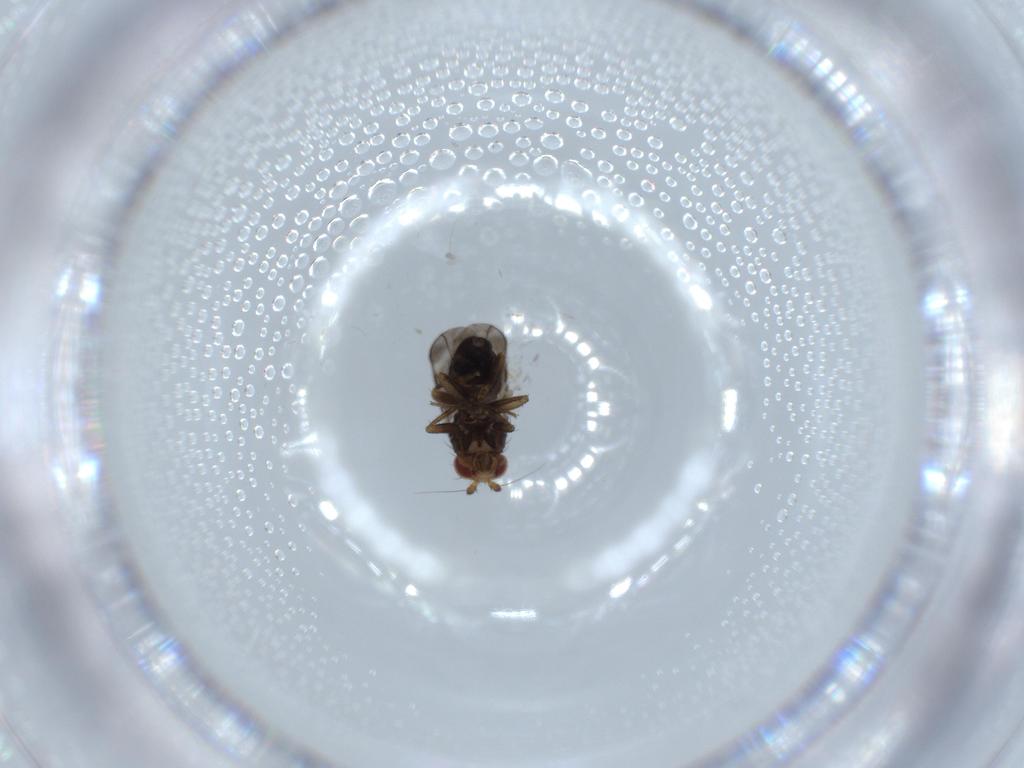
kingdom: Animalia
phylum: Arthropoda
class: Insecta
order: Diptera
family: Sphaeroceridae
